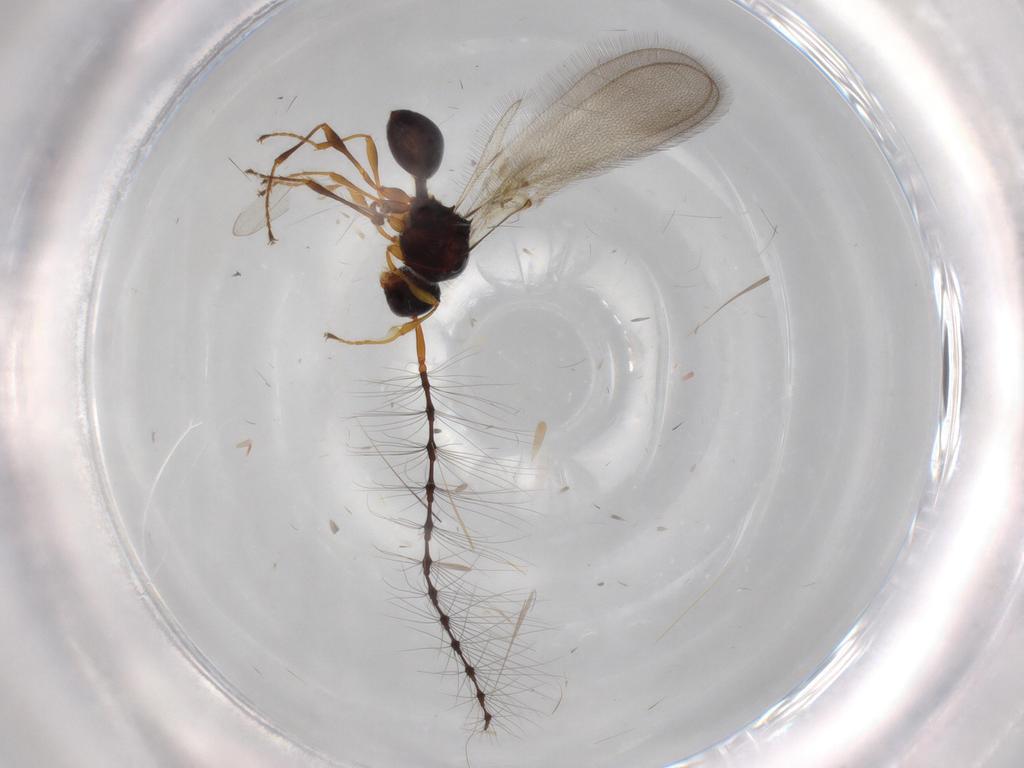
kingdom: Animalia
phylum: Arthropoda
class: Insecta
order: Hymenoptera
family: Diapriidae
